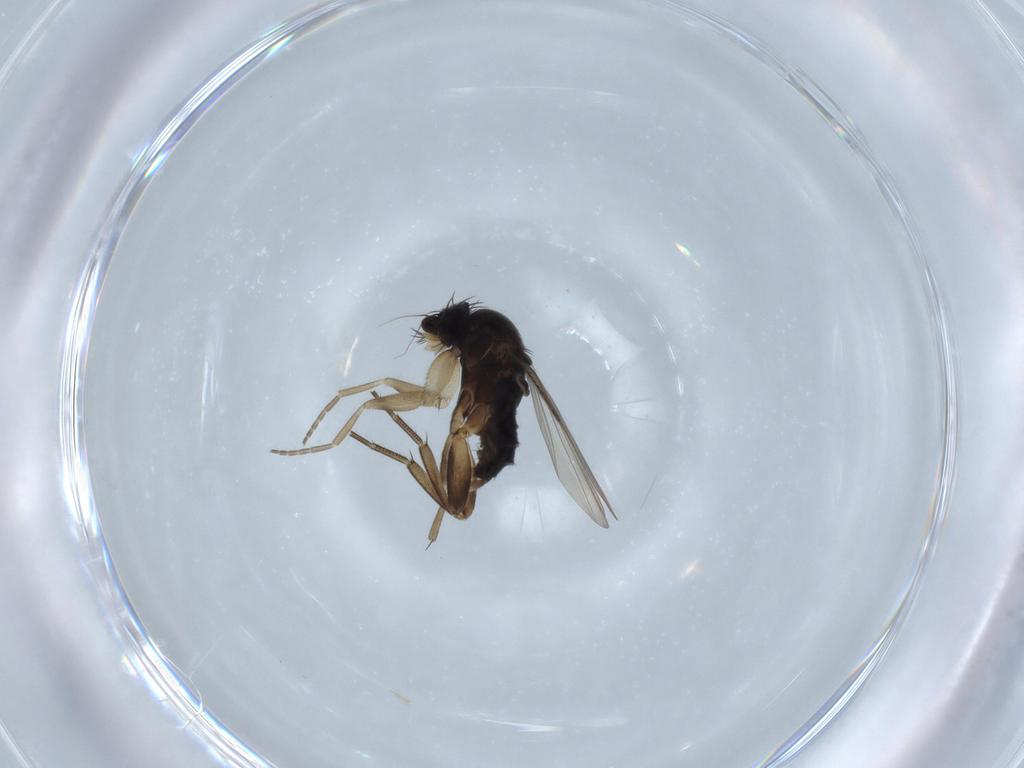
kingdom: Animalia
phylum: Arthropoda
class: Insecta
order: Diptera
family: Phoridae
